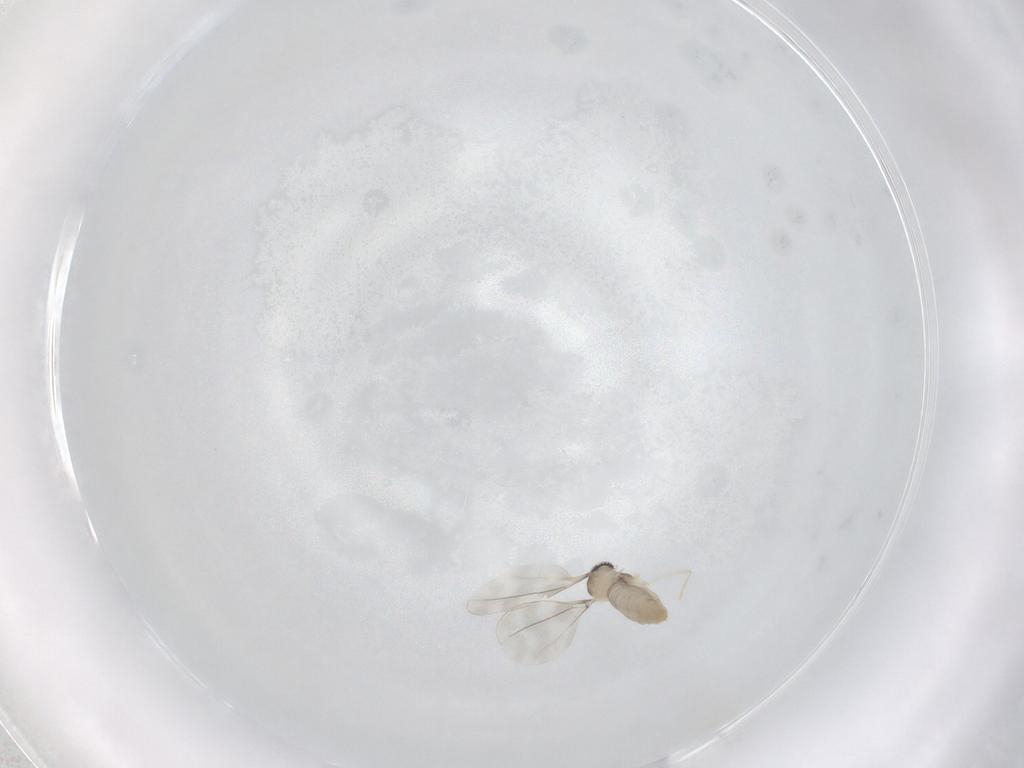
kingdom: Animalia
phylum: Arthropoda
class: Insecta
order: Diptera
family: Cecidomyiidae
